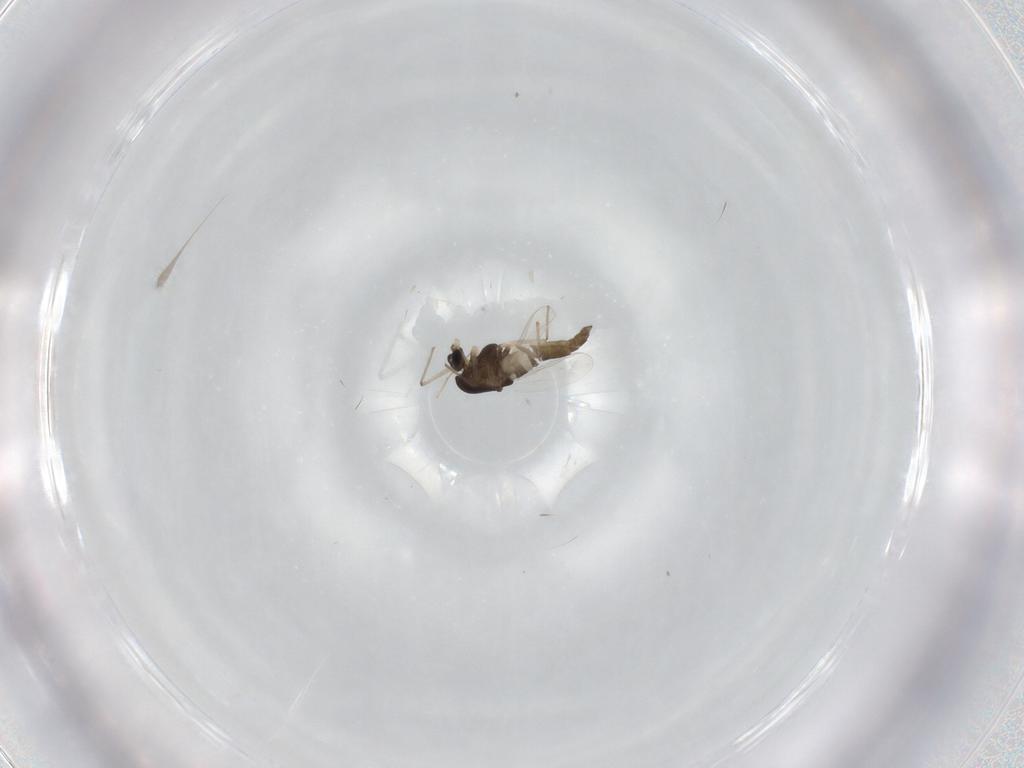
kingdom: Animalia
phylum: Arthropoda
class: Insecta
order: Diptera
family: Chironomidae
